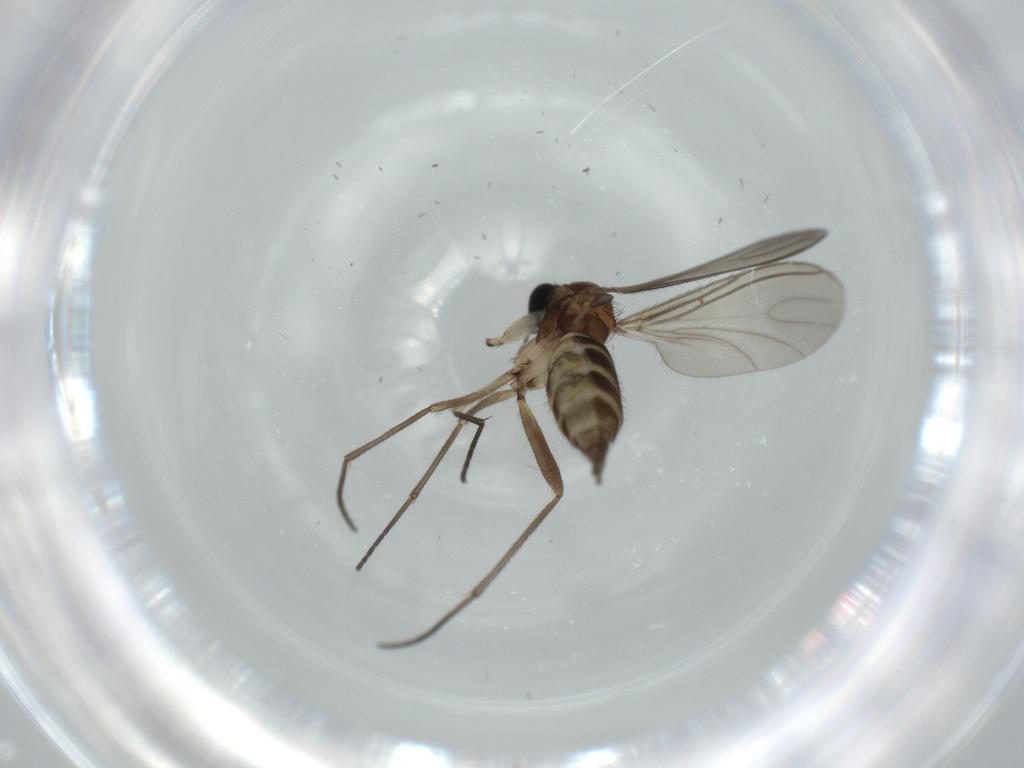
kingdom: Animalia
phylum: Arthropoda
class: Insecta
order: Diptera
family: Sciaridae
